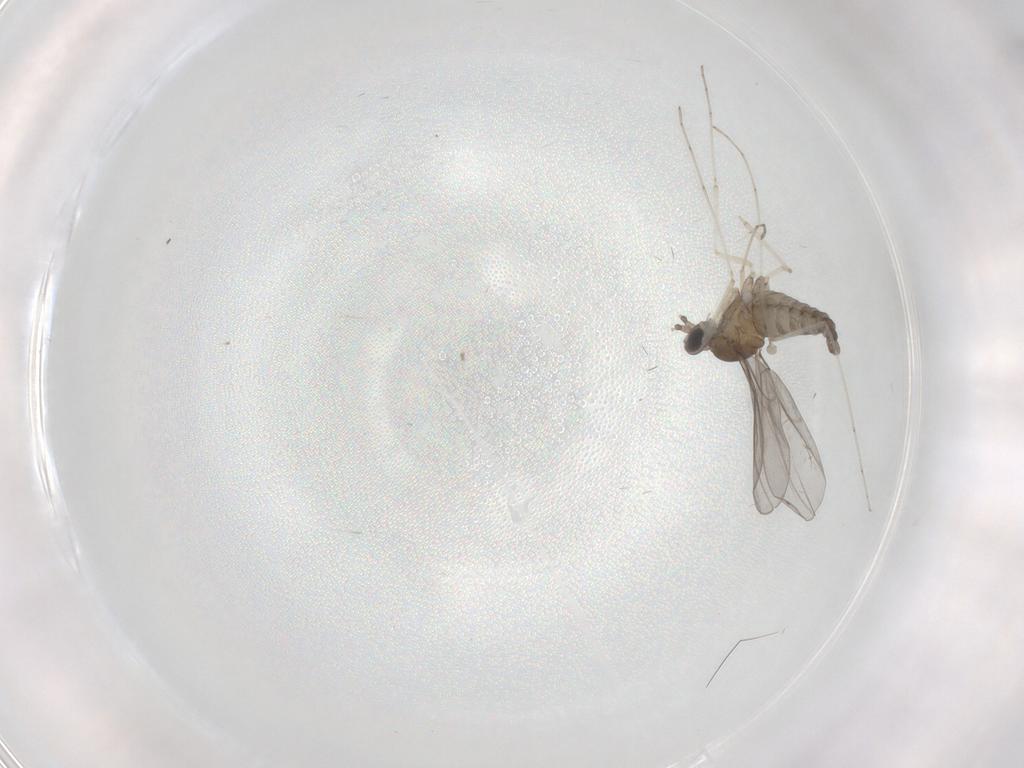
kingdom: Animalia
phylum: Arthropoda
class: Insecta
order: Diptera
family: Cecidomyiidae
